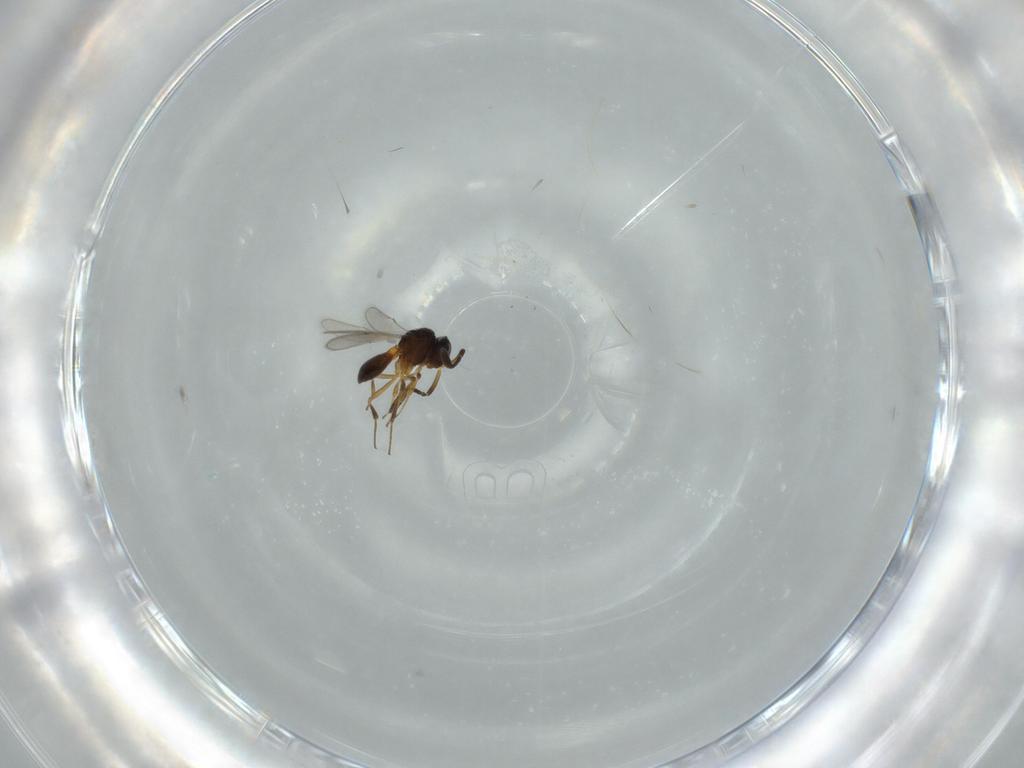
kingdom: Animalia
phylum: Arthropoda
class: Insecta
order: Hymenoptera
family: Scelionidae
